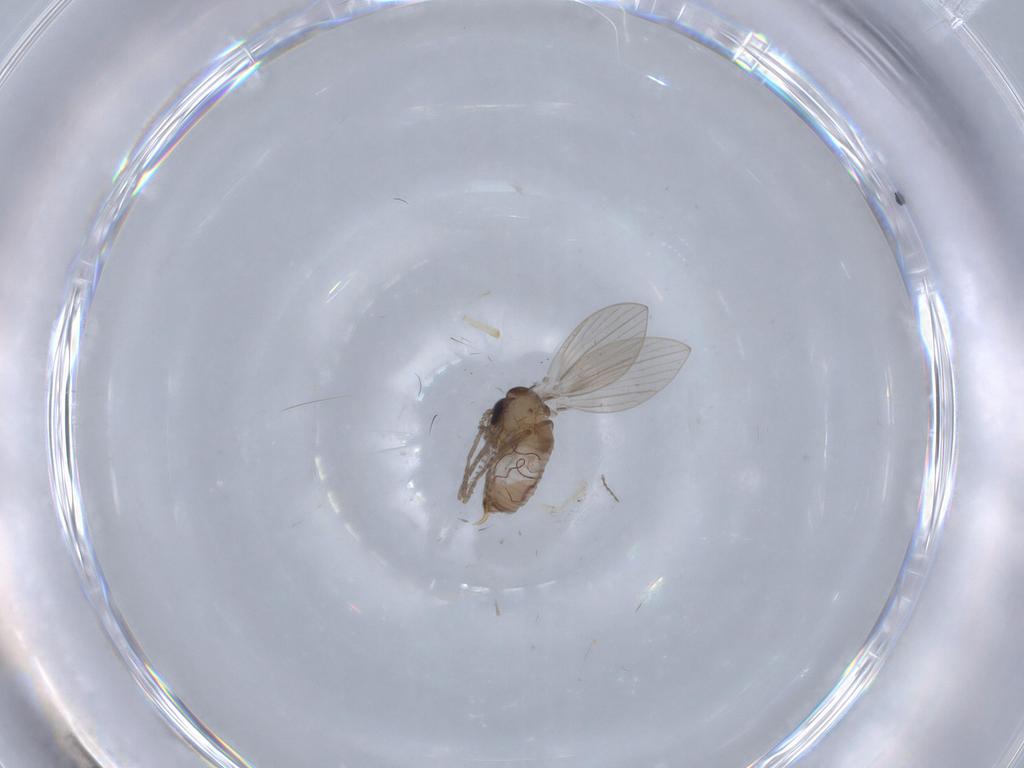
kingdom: Animalia
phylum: Arthropoda
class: Insecta
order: Diptera
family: Psychodidae
